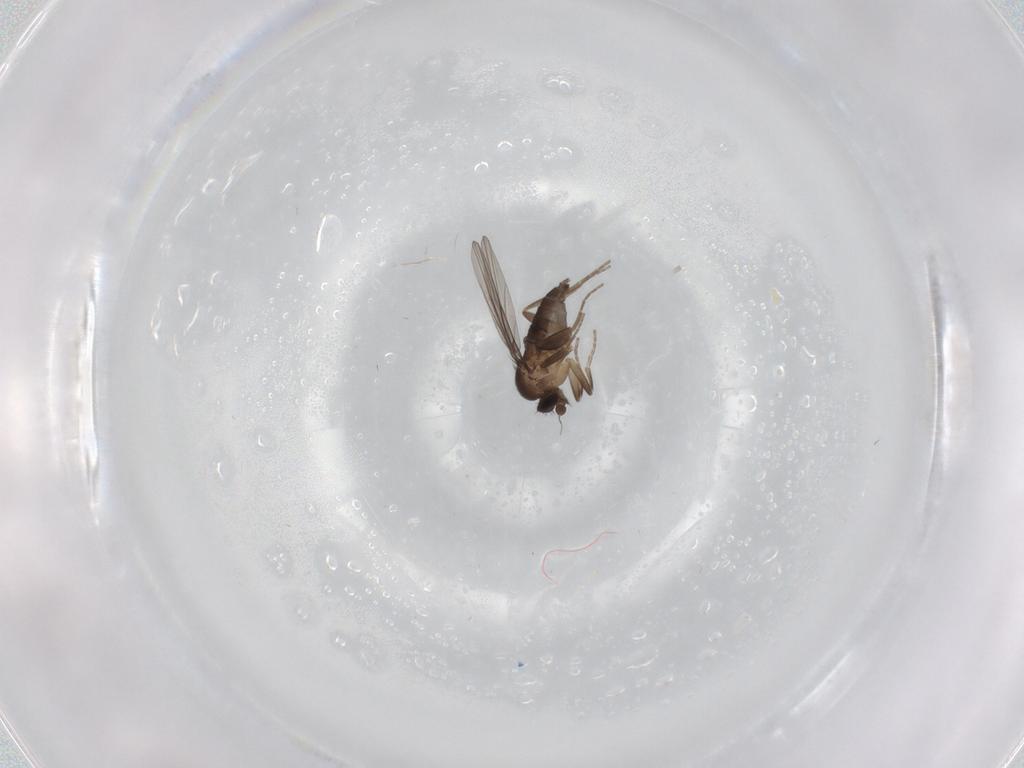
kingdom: Animalia
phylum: Arthropoda
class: Insecta
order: Diptera
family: Phoridae
